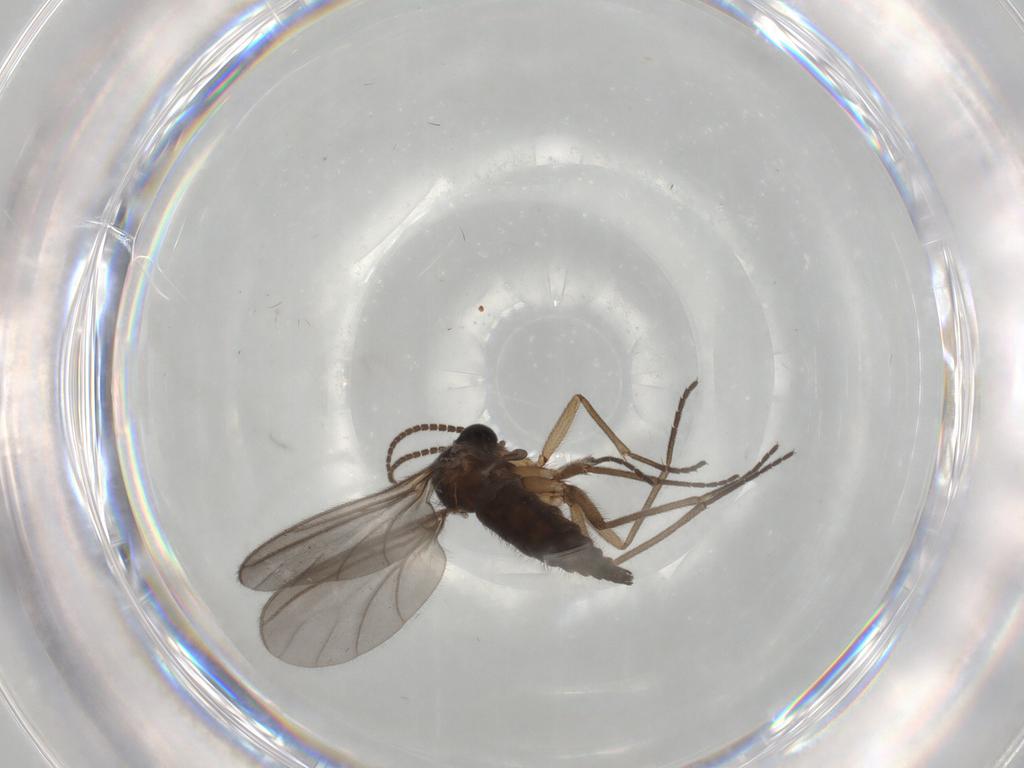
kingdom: Animalia
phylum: Arthropoda
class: Insecta
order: Diptera
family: Sciaridae
